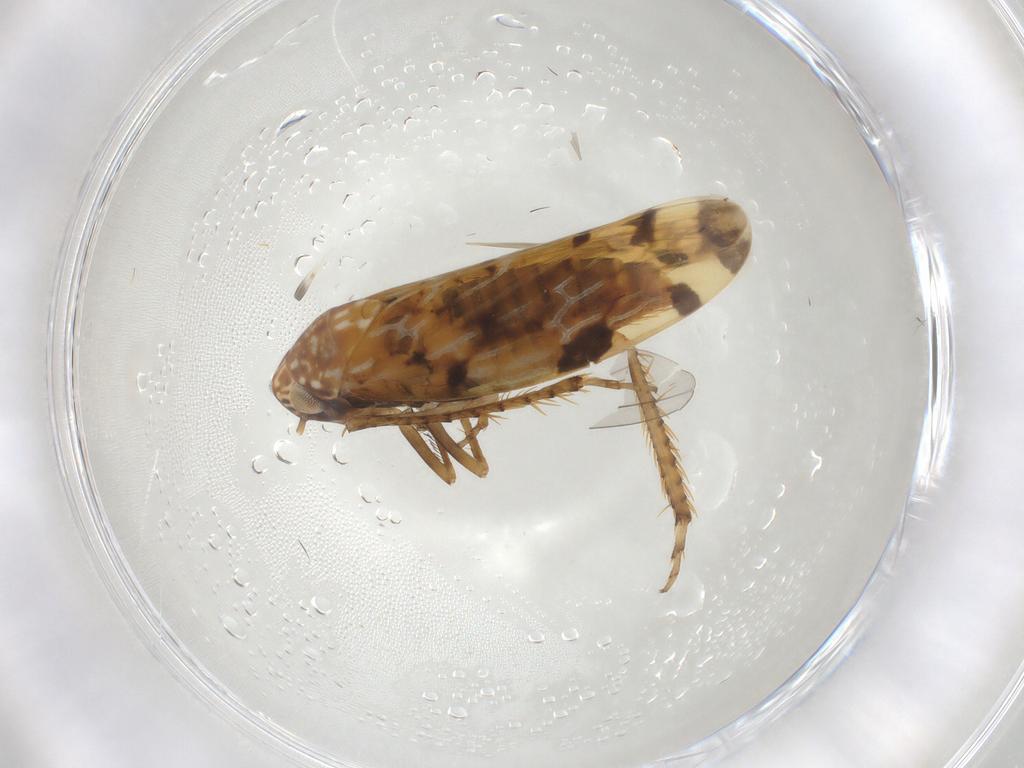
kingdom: Animalia
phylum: Arthropoda
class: Insecta
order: Hemiptera
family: Cicadellidae
